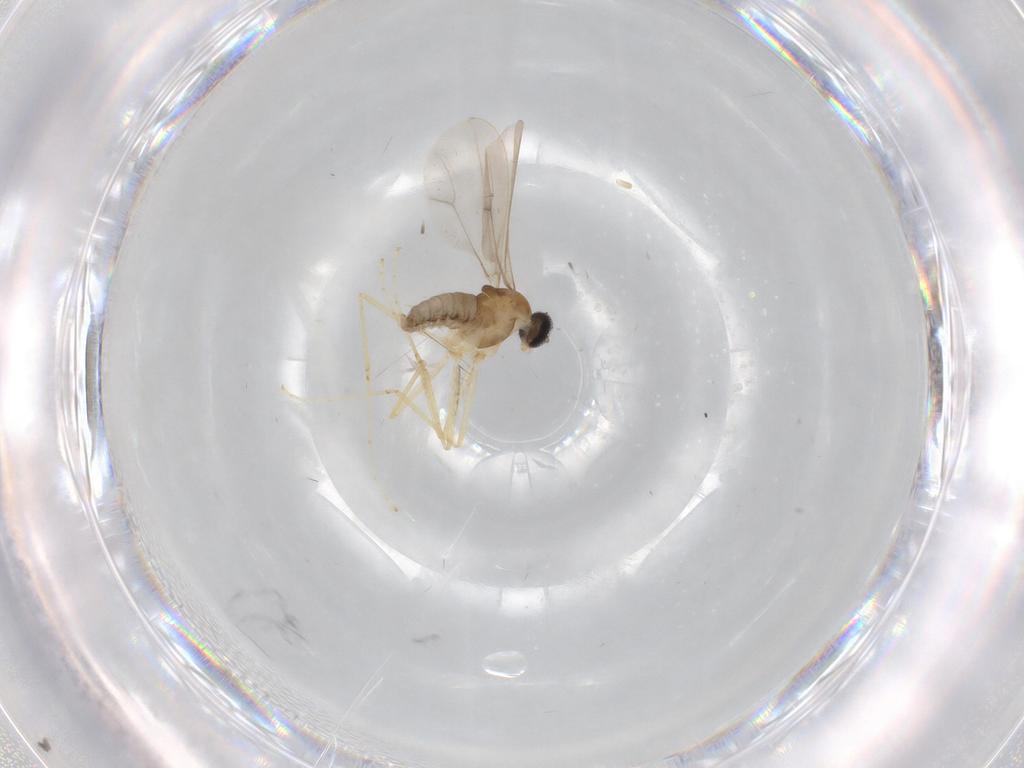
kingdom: Animalia
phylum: Arthropoda
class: Insecta
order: Diptera
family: Cecidomyiidae
